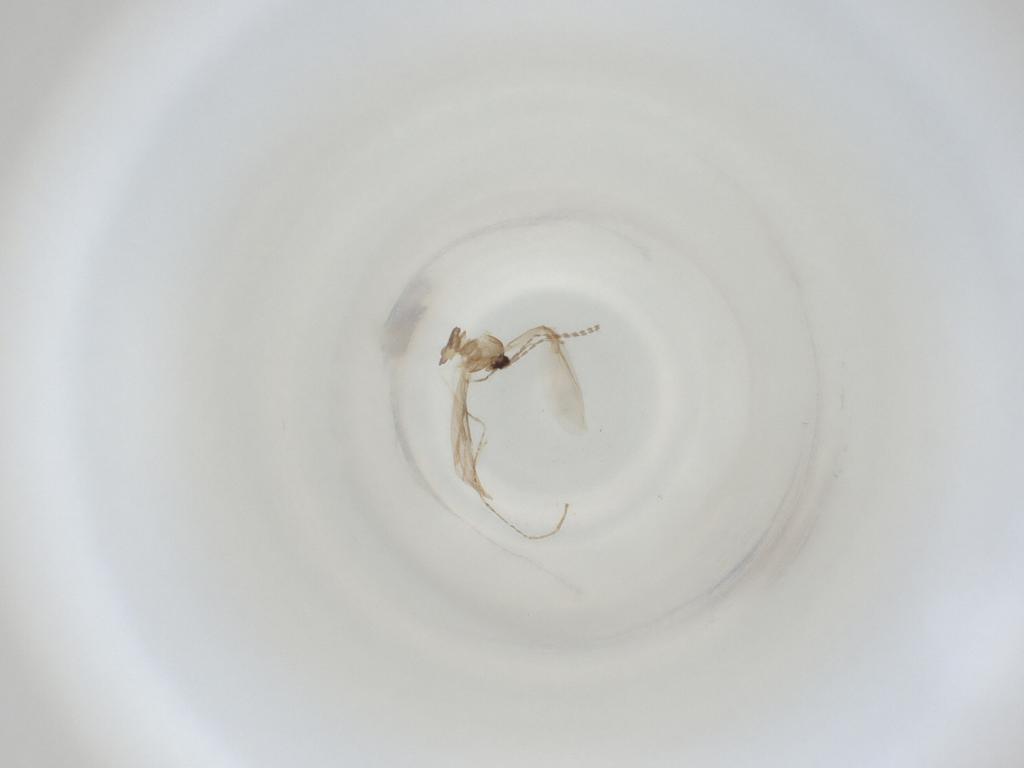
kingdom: Animalia
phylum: Arthropoda
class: Insecta
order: Diptera
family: Cecidomyiidae
